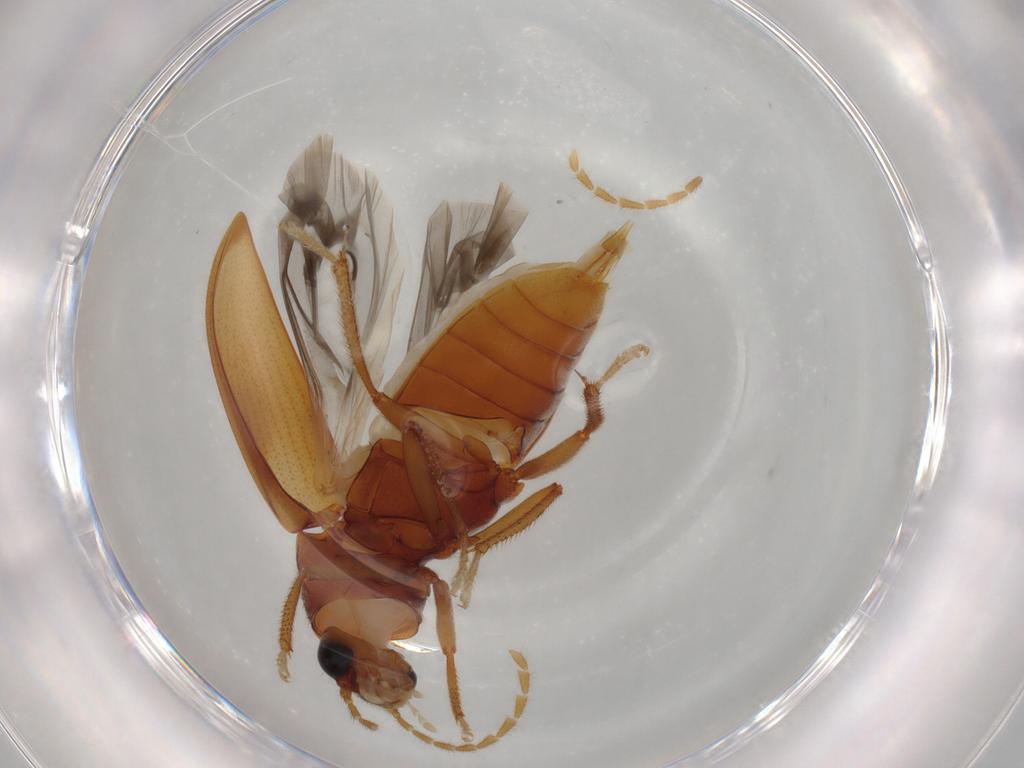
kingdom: Animalia
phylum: Arthropoda
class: Insecta
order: Coleoptera
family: Ptilodactylidae
